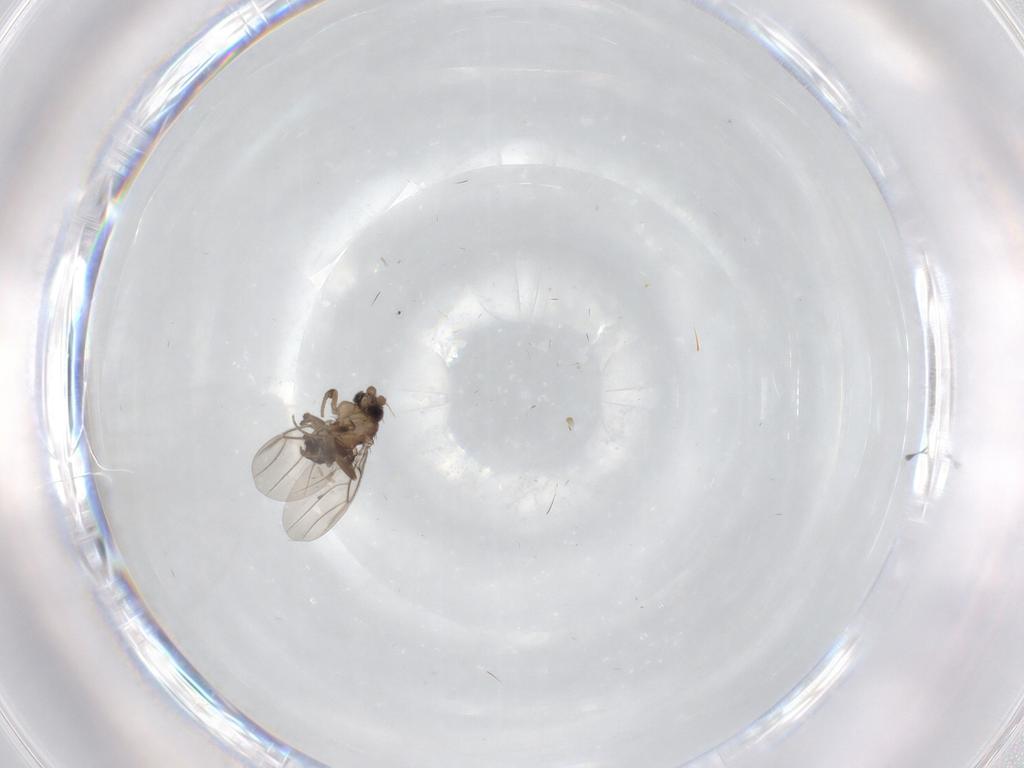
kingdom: Animalia
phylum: Arthropoda
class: Insecta
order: Diptera
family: Phoridae
